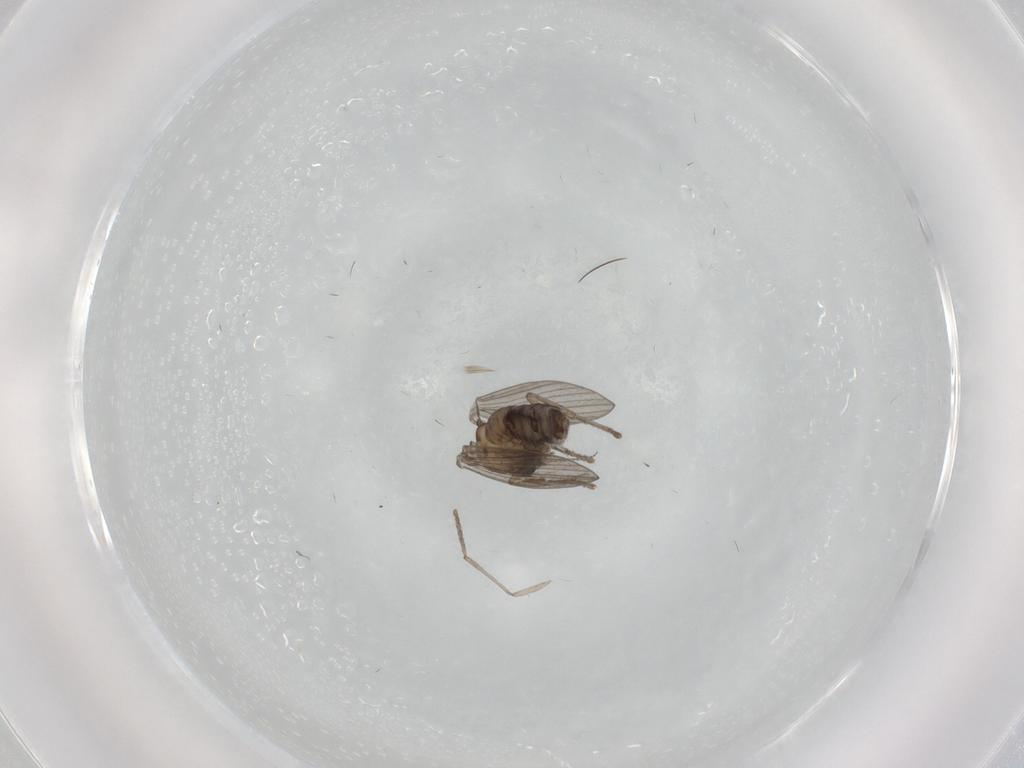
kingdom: Animalia
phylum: Arthropoda
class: Insecta
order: Diptera
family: Psychodidae
